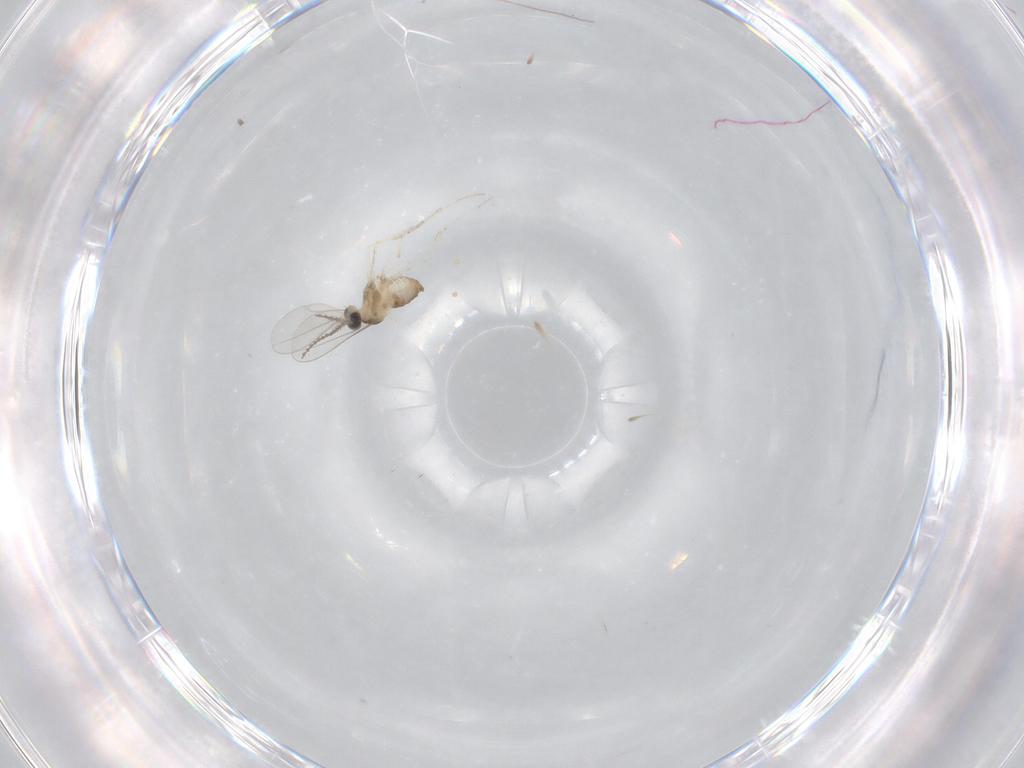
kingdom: Animalia
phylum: Arthropoda
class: Insecta
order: Diptera
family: Cecidomyiidae
